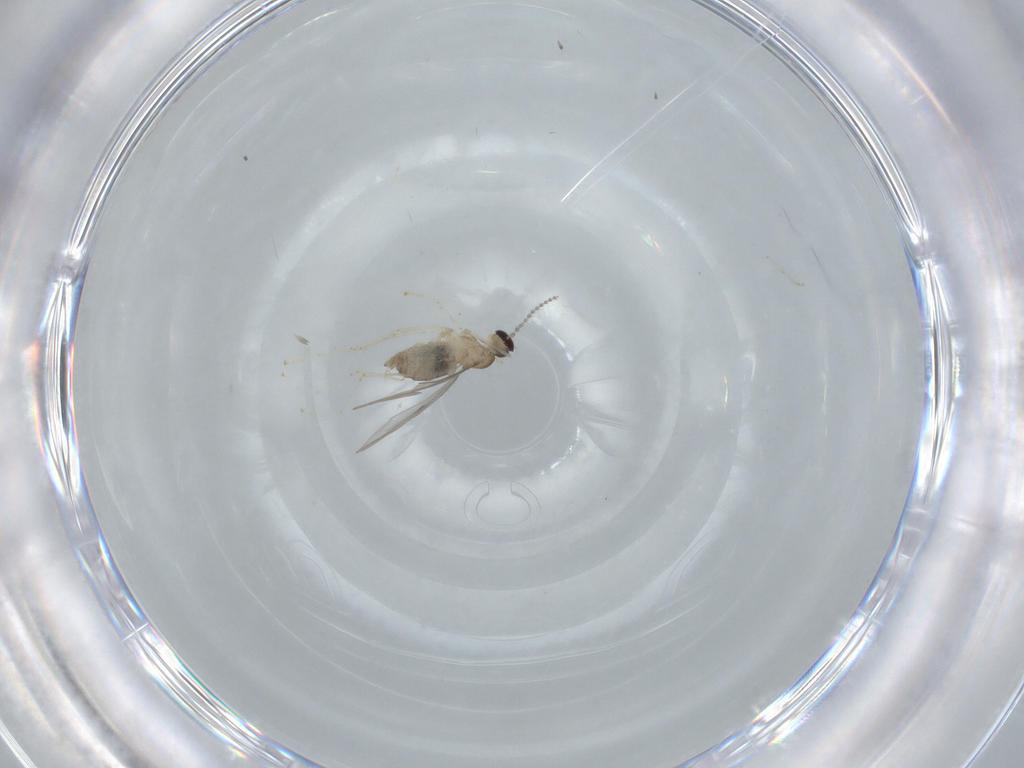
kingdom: Animalia
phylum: Arthropoda
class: Insecta
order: Diptera
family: Cecidomyiidae
